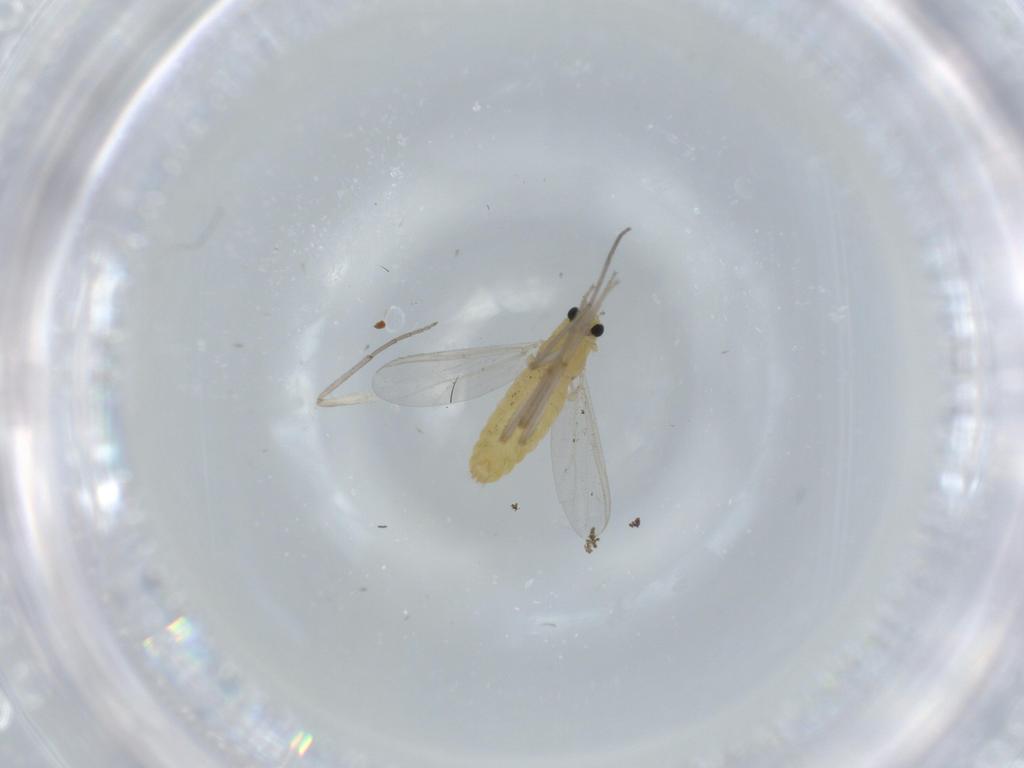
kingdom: Animalia
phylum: Arthropoda
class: Insecta
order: Diptera
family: Chironomidae
